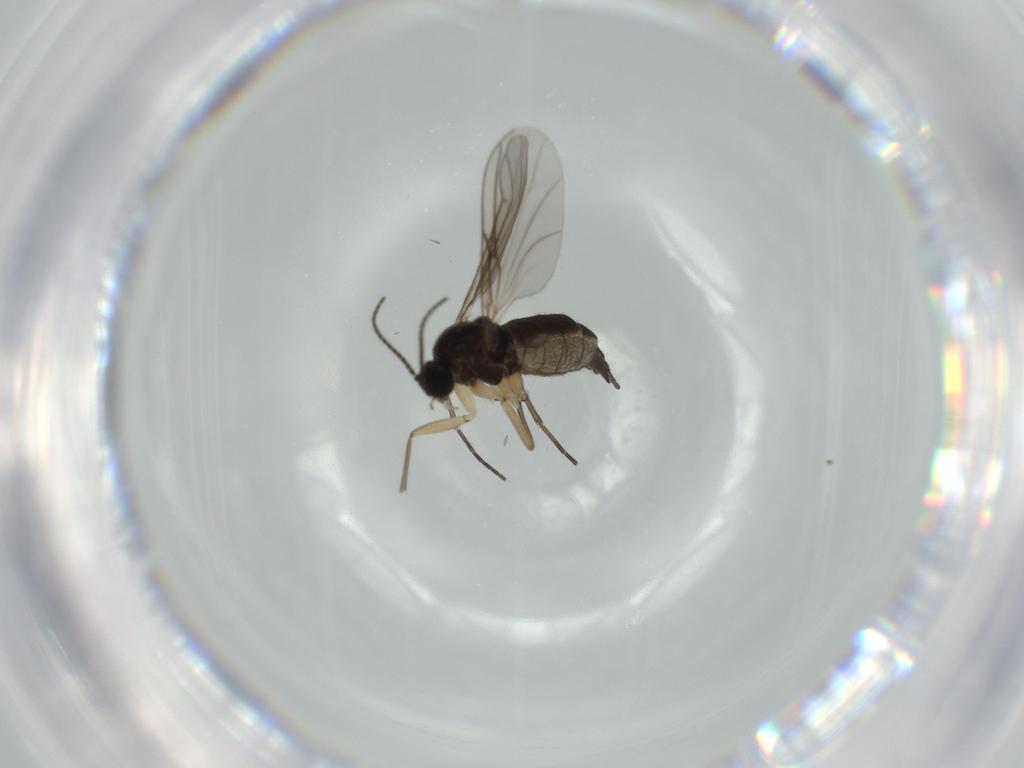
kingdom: Animalia
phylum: Arthropoda
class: Insecta
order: Diptera
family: Sciaridae
